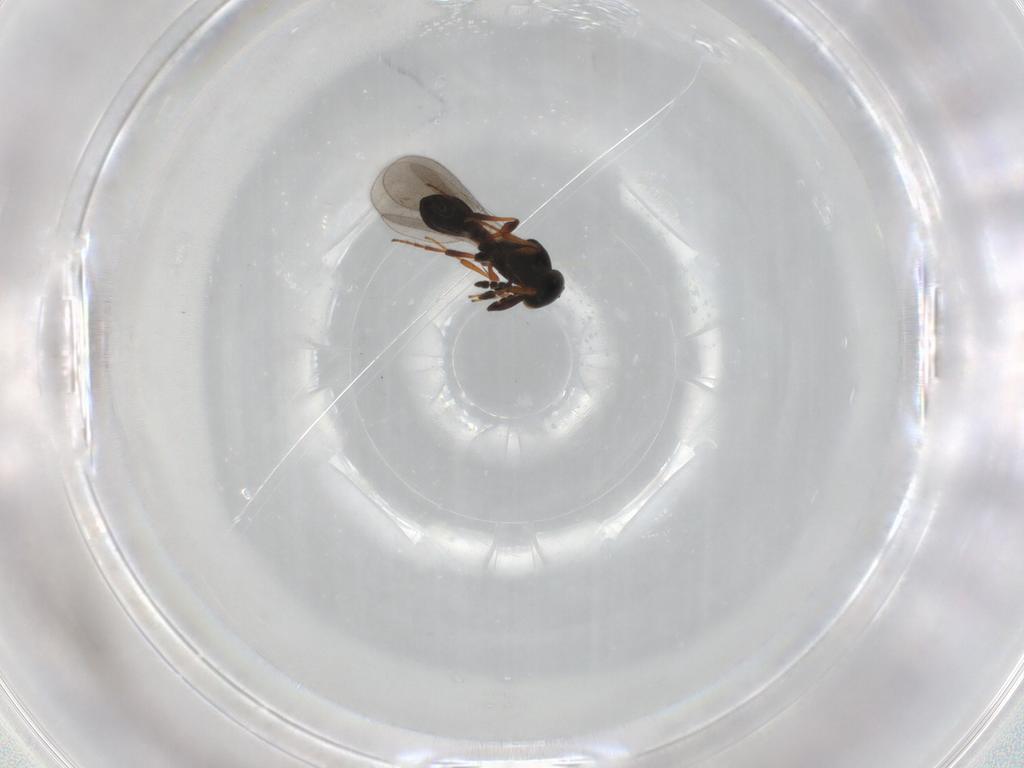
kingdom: Animalia
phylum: Arthropoda
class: Insecta
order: Hymenoptera
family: Platygastridae
